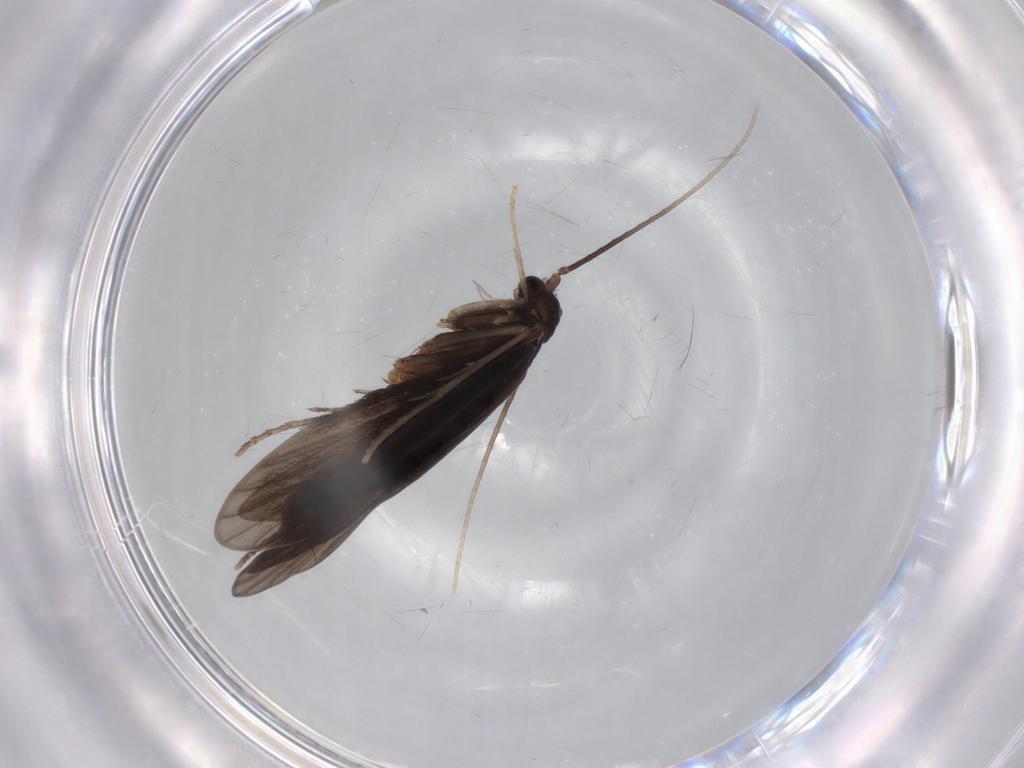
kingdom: Animalia
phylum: Arthropoda
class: Insecta
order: Trichoptera
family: Xiphocentronidae
